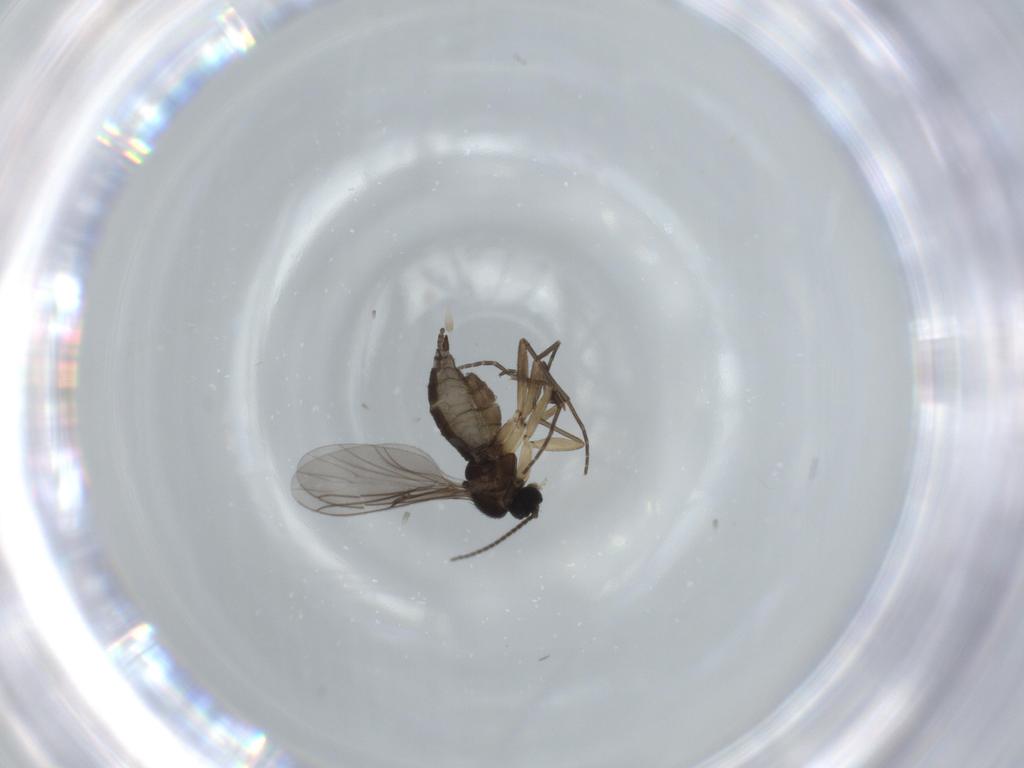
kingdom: Animalia
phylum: Arthropoda
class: Insecta
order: Diptera
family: Sciaridae
